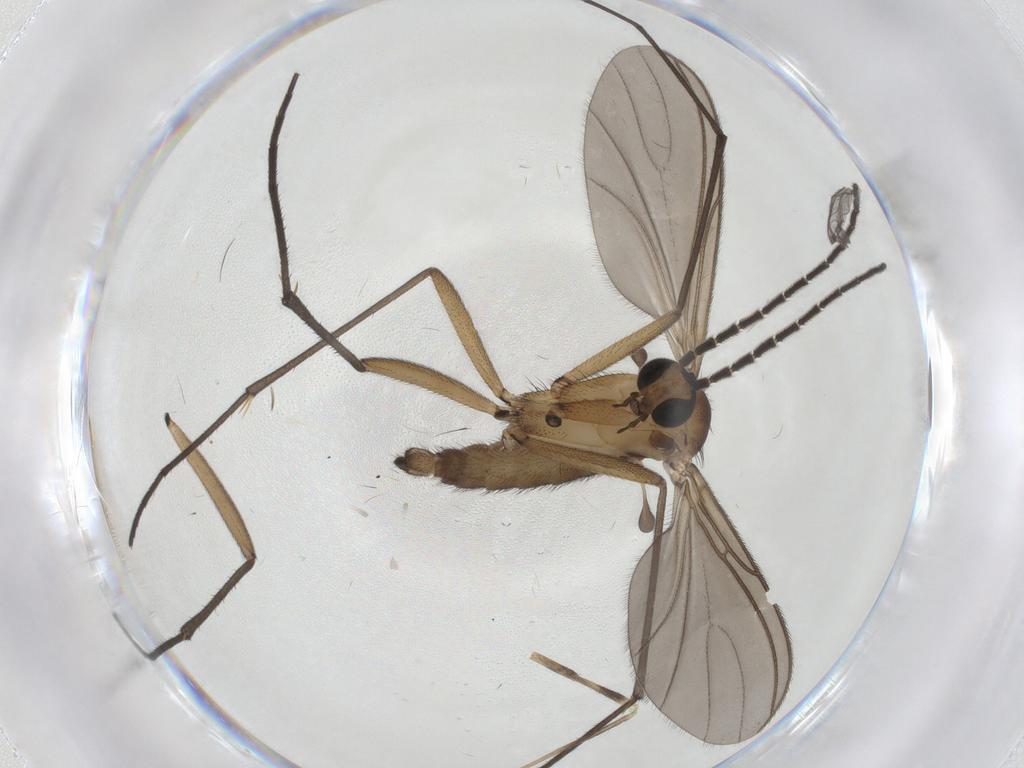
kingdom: Animalia
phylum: Arthropoda
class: Insecta
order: Diptera
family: Limoniidae
